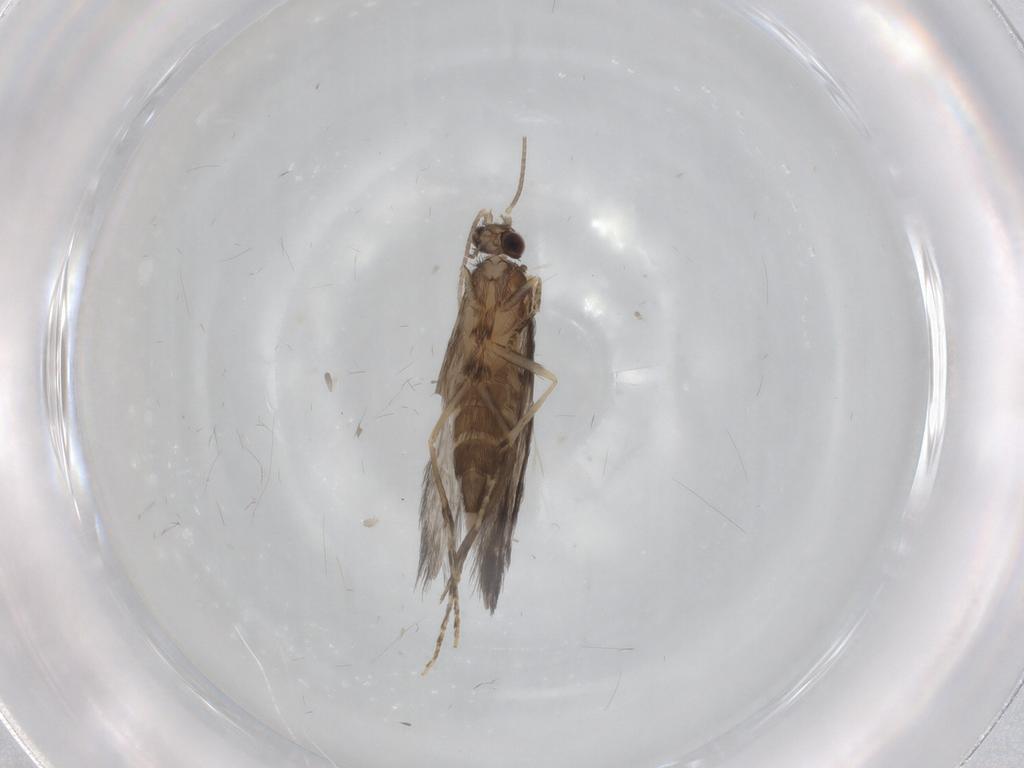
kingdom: Animalia
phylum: Arthropoda
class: Insecta
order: Trichoptera
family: Hydroptilidae
